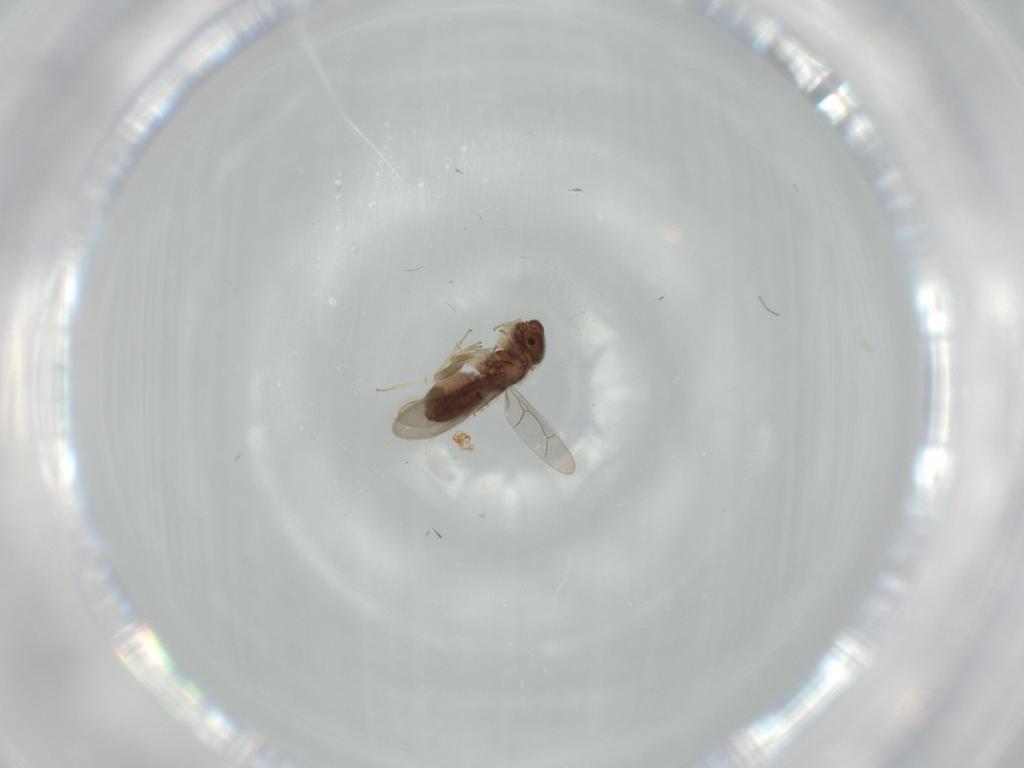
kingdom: Animalia
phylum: Arthropoda
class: Insecta
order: Psocodea
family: Archipsocidae
